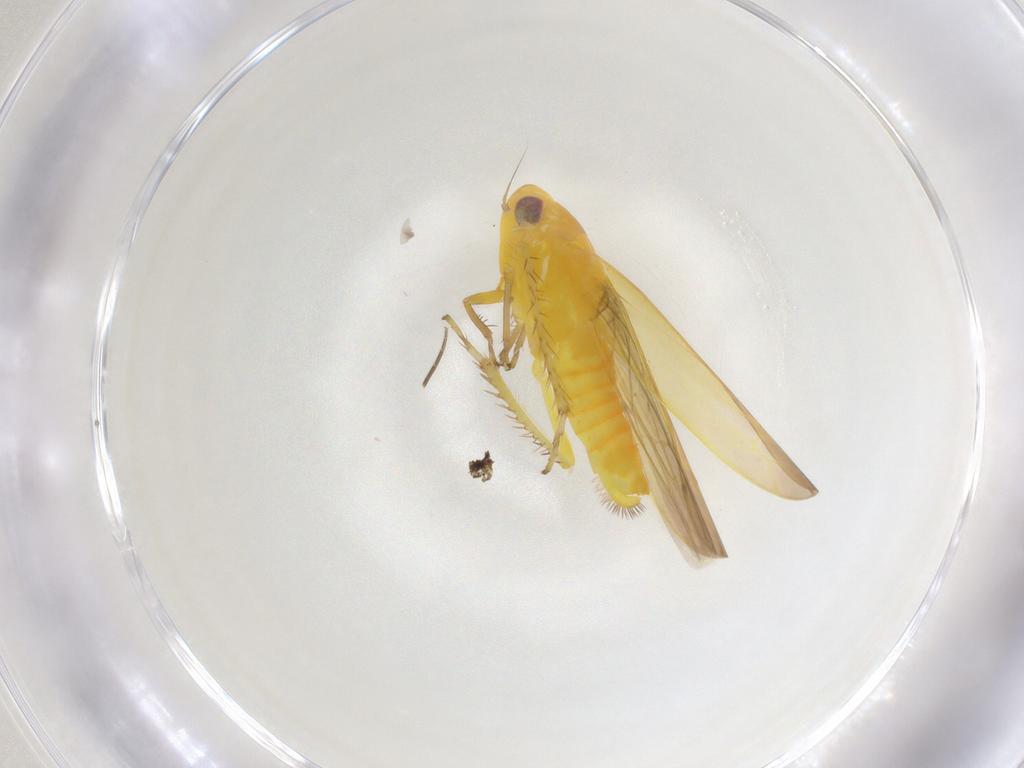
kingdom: Animalia
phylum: Arthropoda
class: Insecta
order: Hemiptera
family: Cicadellidae
